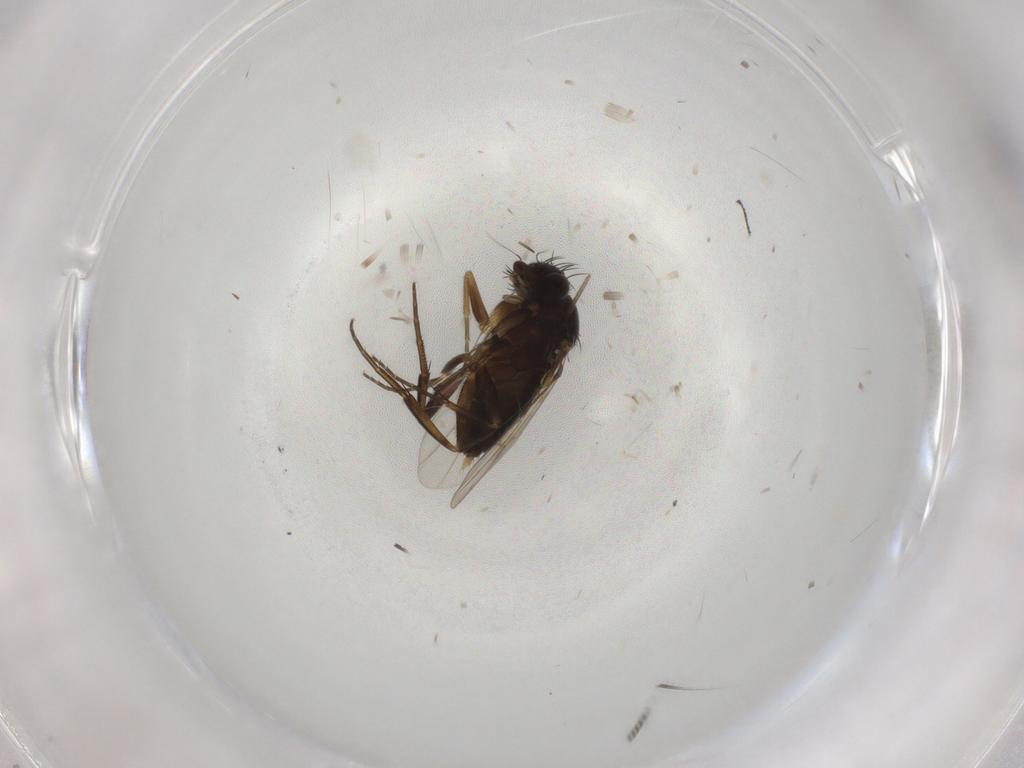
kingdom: Animalia
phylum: Arthropoda
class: Insecta
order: Diptera
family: Phoridae
